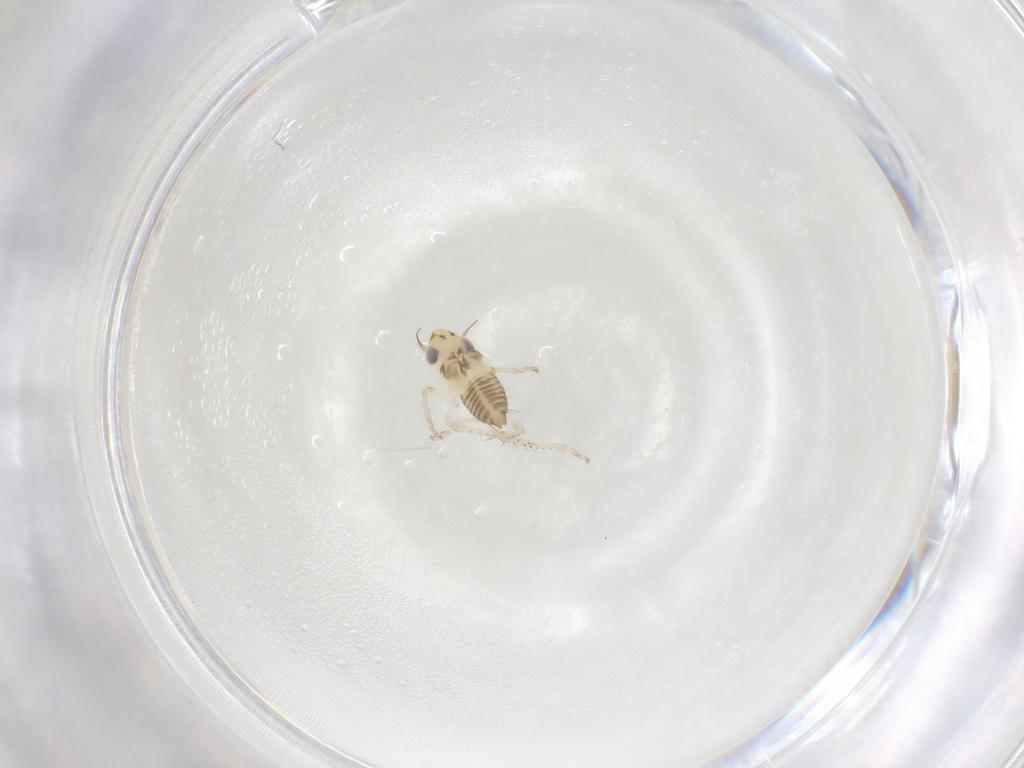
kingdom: Animalia
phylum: Arthropoda
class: Insecta
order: Hemiptera
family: Cicadellidae
